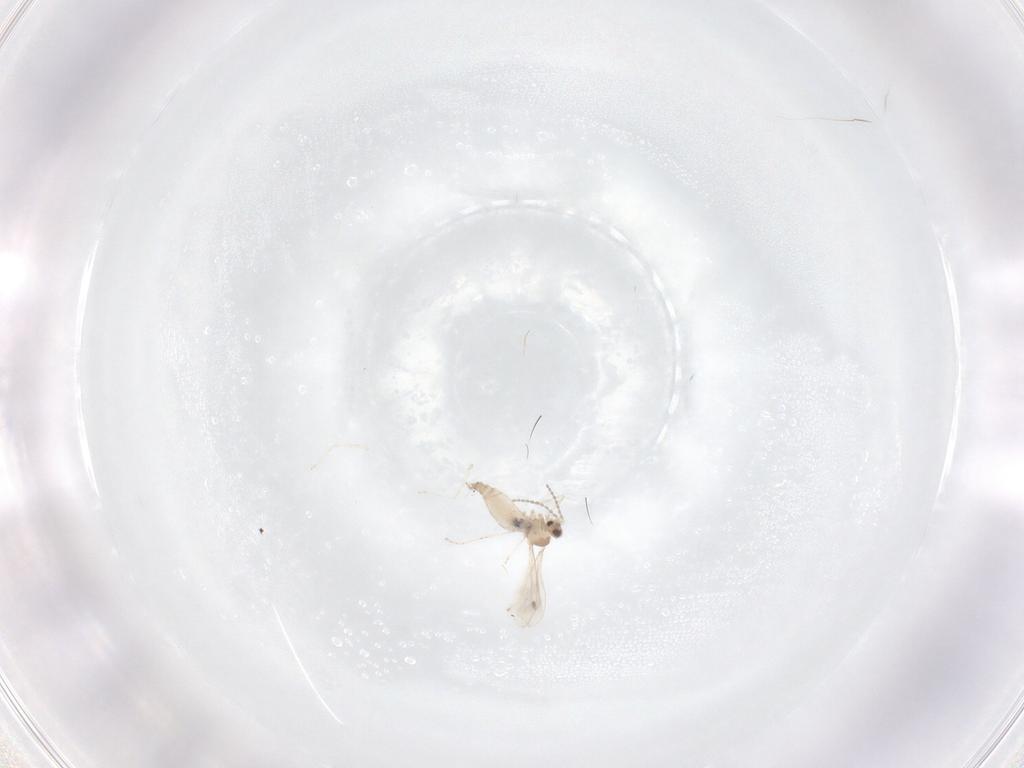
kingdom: Animalia
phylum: Arthropoda
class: Insecta
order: Diptera
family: Cecidomyiidae
